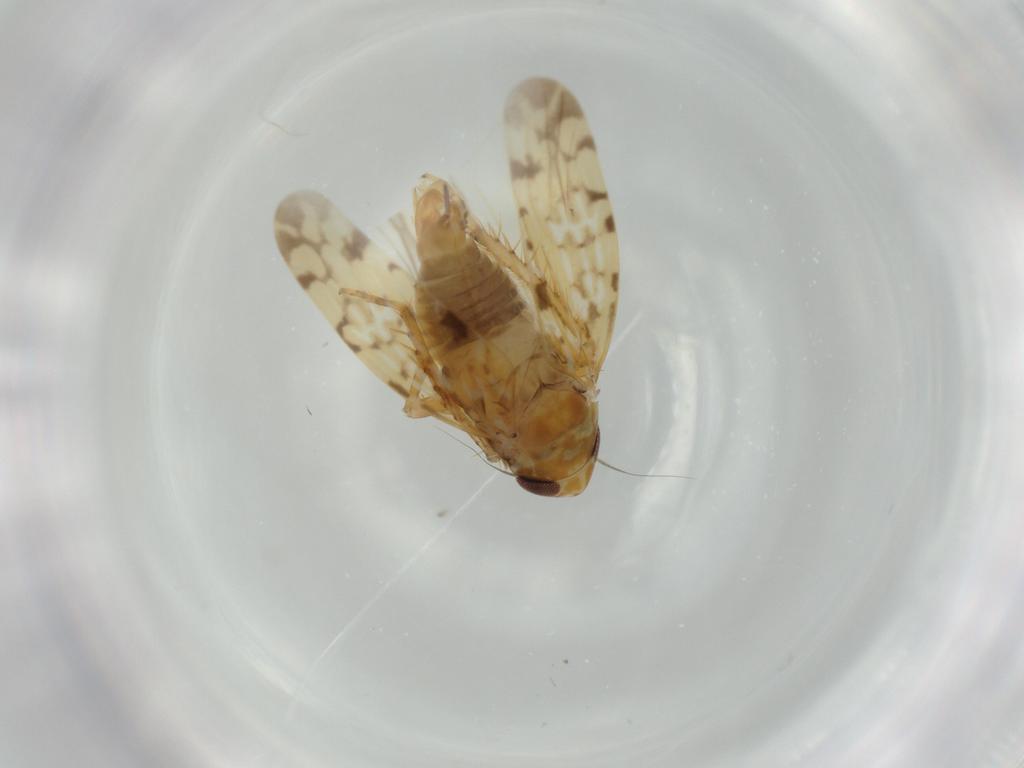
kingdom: Animalia
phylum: Arthropoda
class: Insecta
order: Hemiptera
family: Cicadellidae
